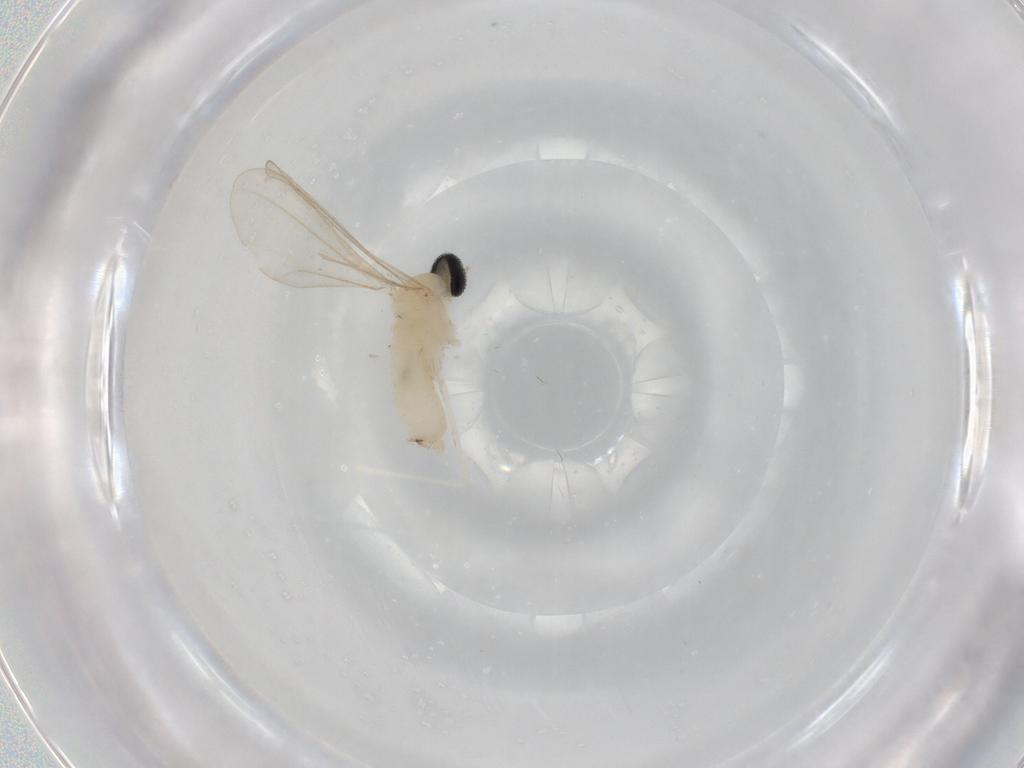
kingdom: Animalia
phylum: Arthropoda
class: Insecta
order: Diptera
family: Cecidomyiidae
